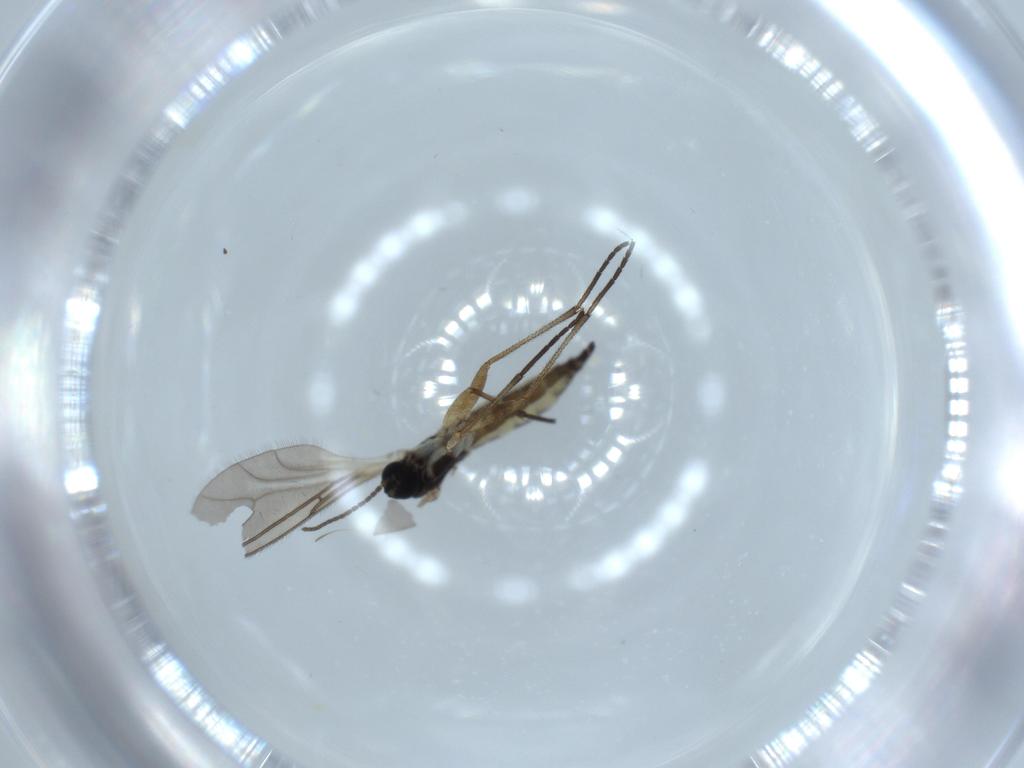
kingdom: Animalia
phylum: Arthropoda
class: Insecta
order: Diptera
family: Sciaridae
